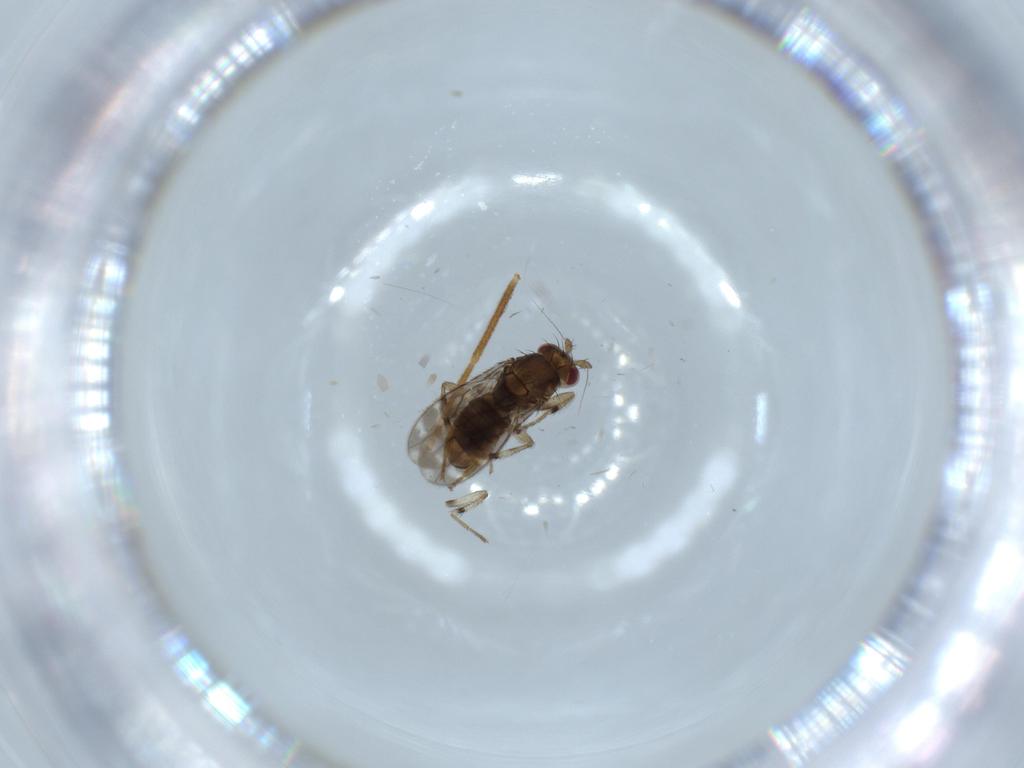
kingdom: Animalia
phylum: Arthropoda
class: Insecta
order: Diptera
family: Sphaeroceridae
